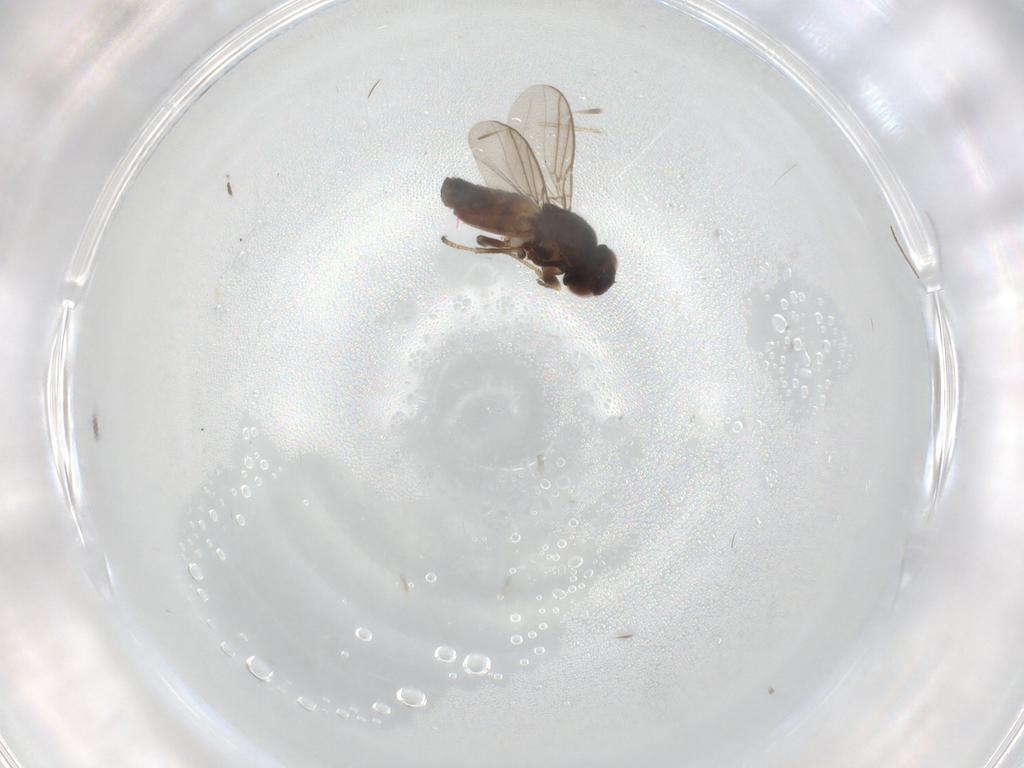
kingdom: Animalia
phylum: Arthropoda
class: Insecta
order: Diptera
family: Chloropidae
